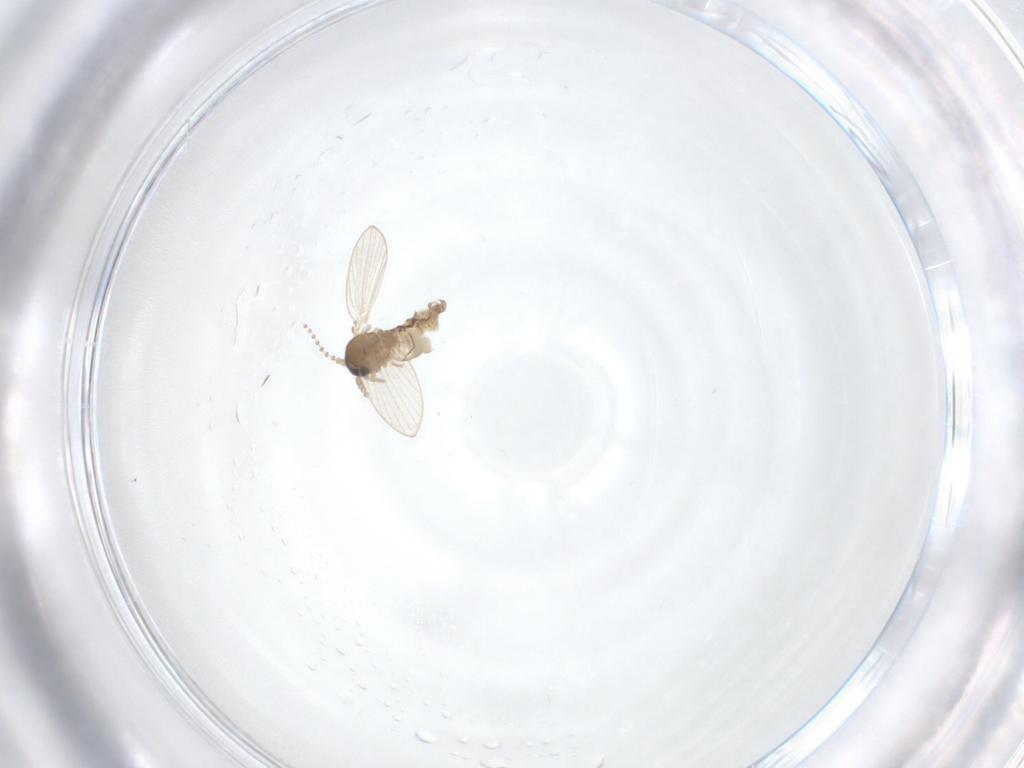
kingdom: Animalia
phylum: Arthropoda
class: Insecta
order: Diptera
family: Psychodidae
